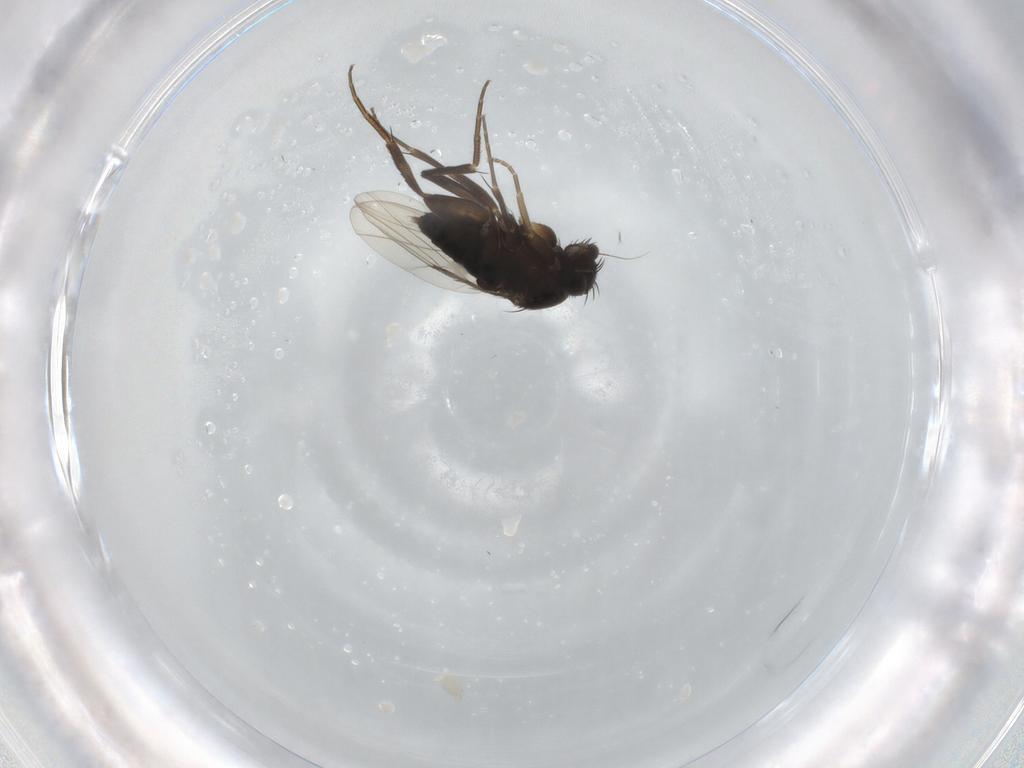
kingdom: Animalia
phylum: Arthropoda
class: Insecta
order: Diptera
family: Phoridae
